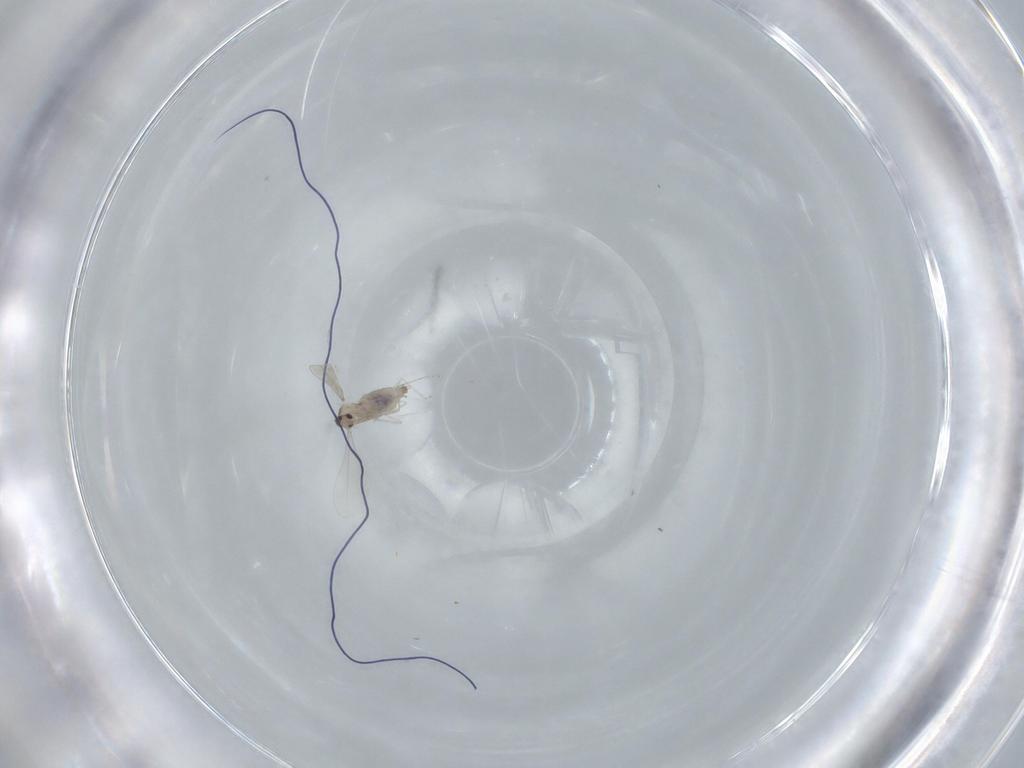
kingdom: Animalia
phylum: Arthropoda
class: Insecta
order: Diptera
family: Cecidomyiidae
